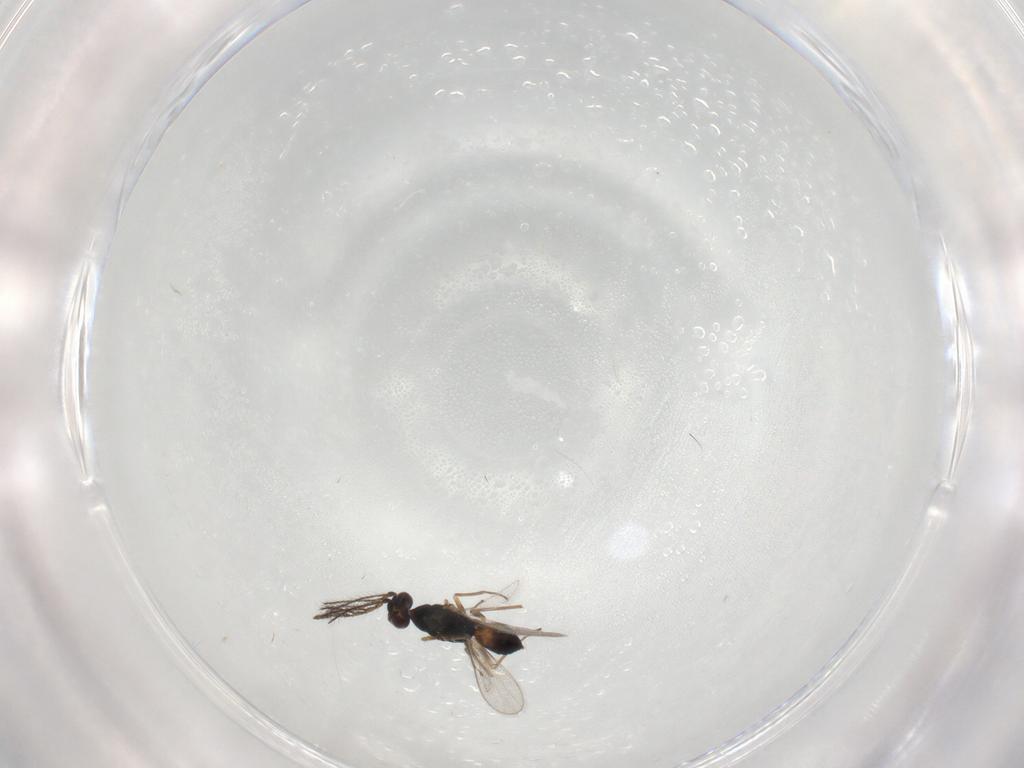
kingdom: Animalia
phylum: Arthropoda
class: Insecta
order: Hymenoptera
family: Eulophidae
